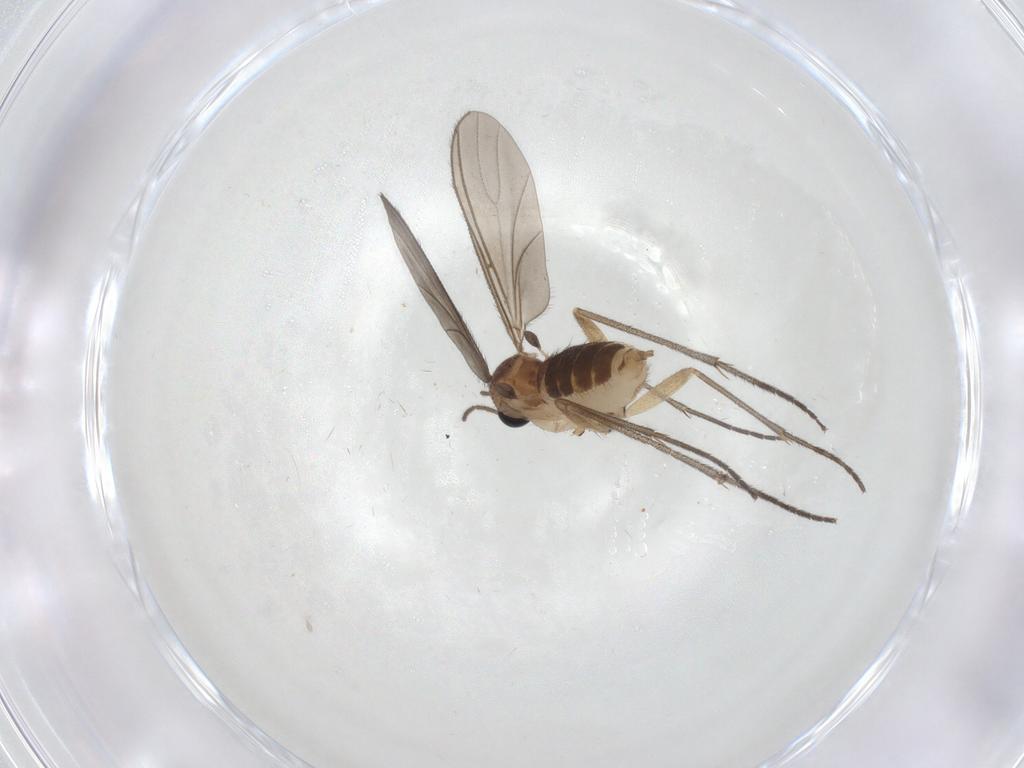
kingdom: Animalia
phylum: Arthropoda
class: Insecta
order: Diptera
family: Sciaridae
